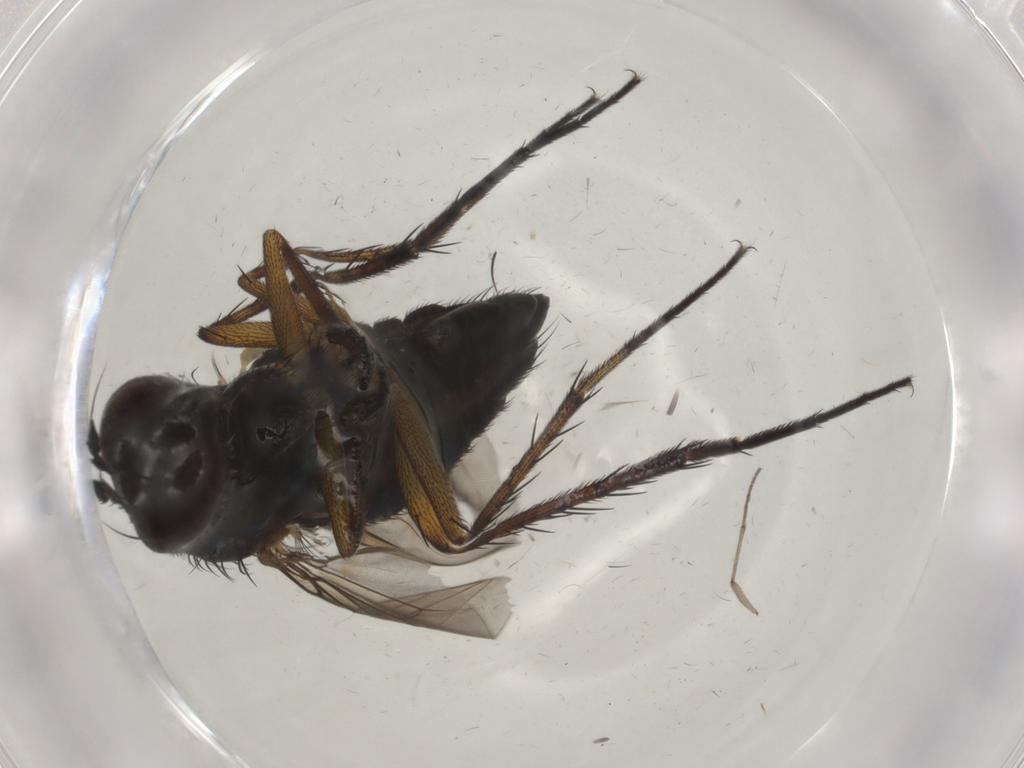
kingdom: Animalia
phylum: Arthropoda
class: Insecta
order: Diptera
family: Dolichopodidae
